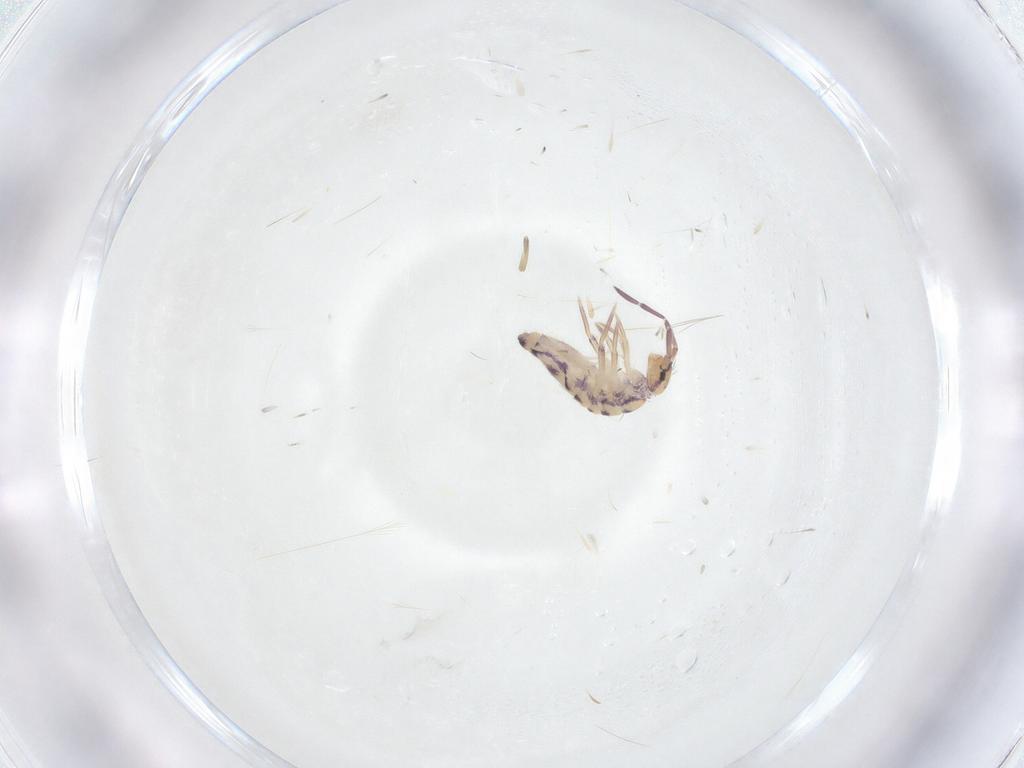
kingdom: Animalia
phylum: Arthropoda
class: Collembola
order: Entomobryomorpha
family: Entomobryidae
